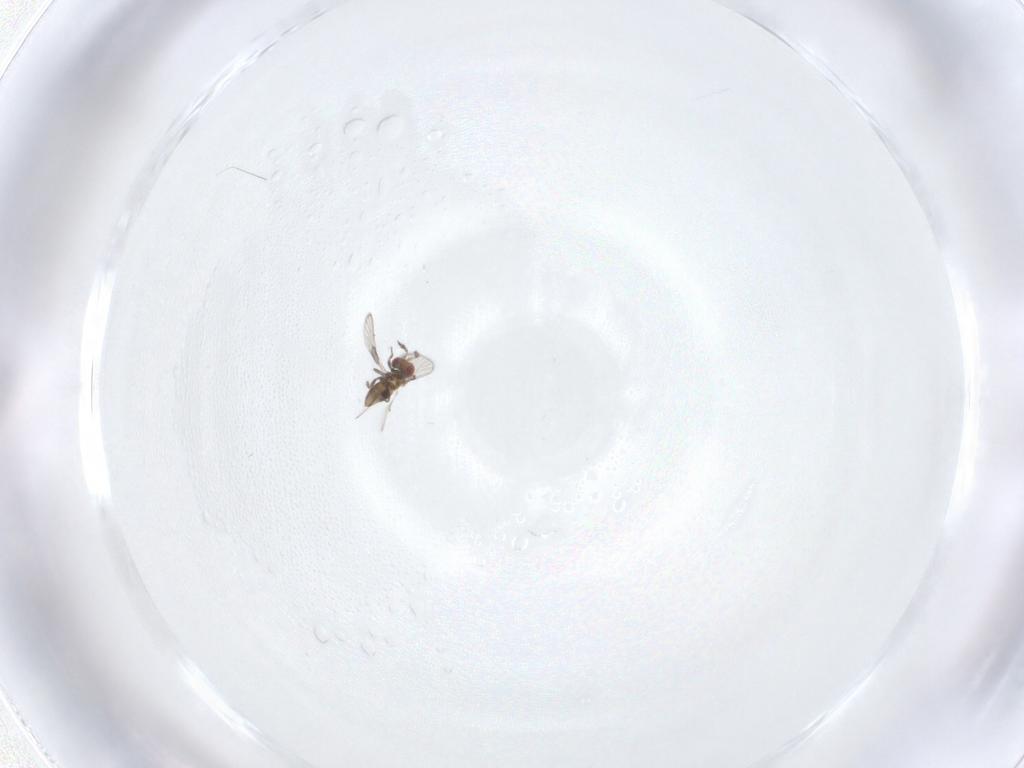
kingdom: Animalia
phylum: Arthropoda
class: Insecta
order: Hymenoptera
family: Trichogrammatidae
